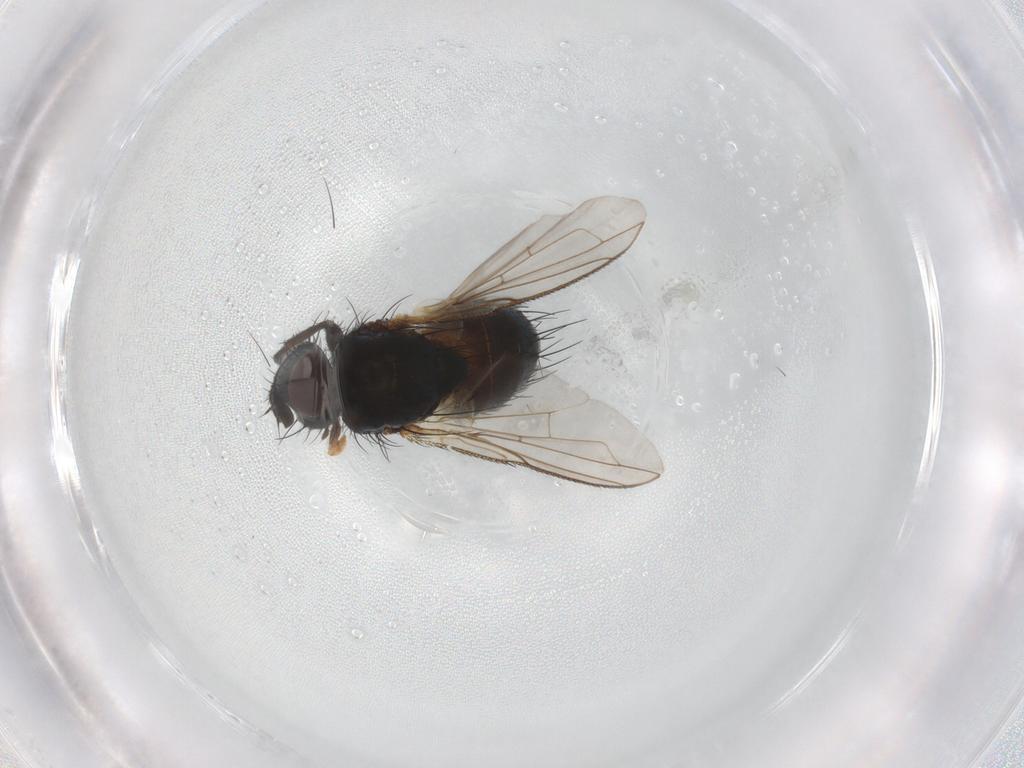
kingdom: Animalia
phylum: Arthropoda
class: Insecta
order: Diptera
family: Tachinidae
